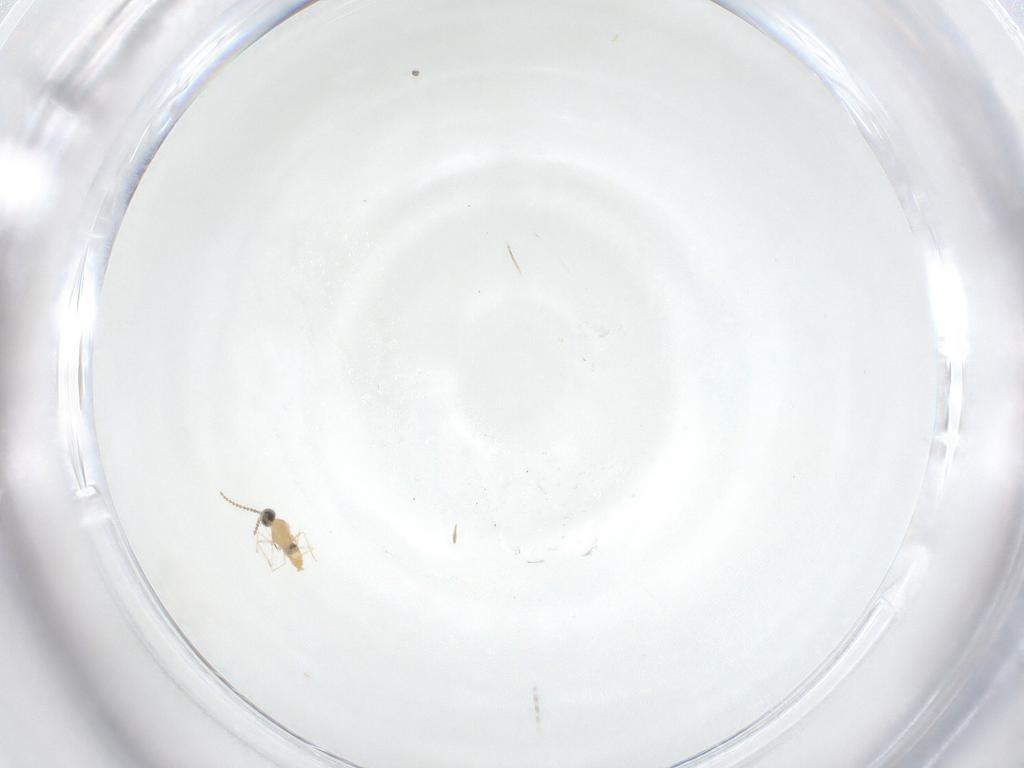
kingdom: Animalia
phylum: Arthropoda
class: Insecta
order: Diptera
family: Cecidomyiidae
